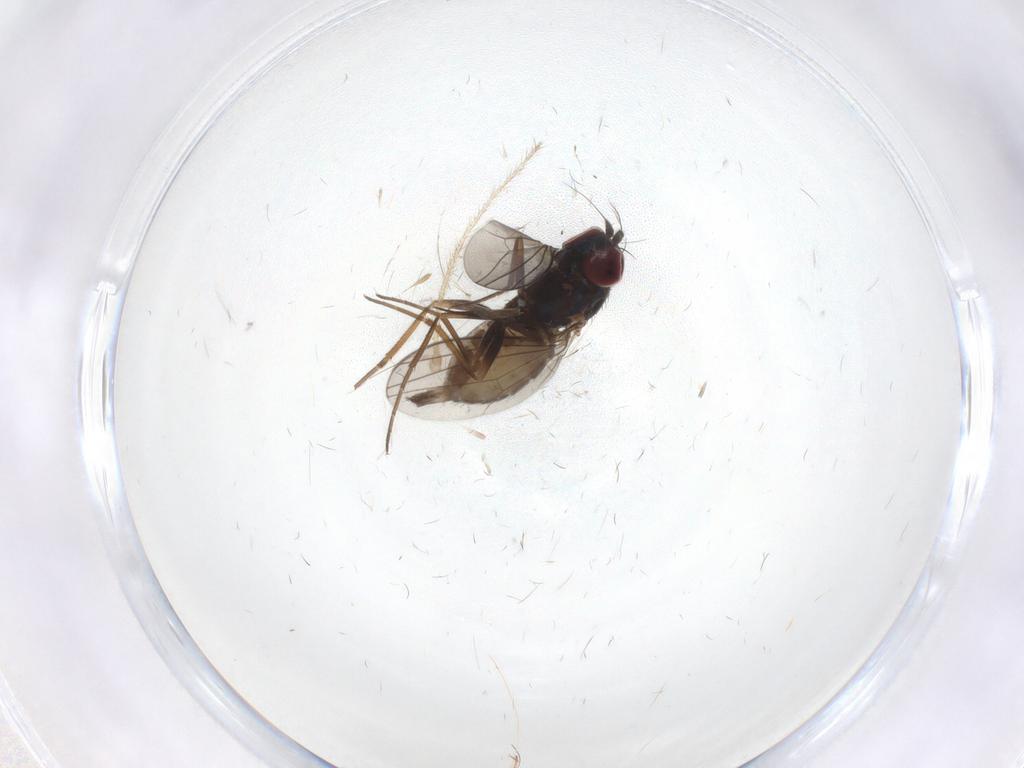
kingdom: Animalia
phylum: Arthropoda
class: Insecta
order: Diptera
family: Dolichopodidae
